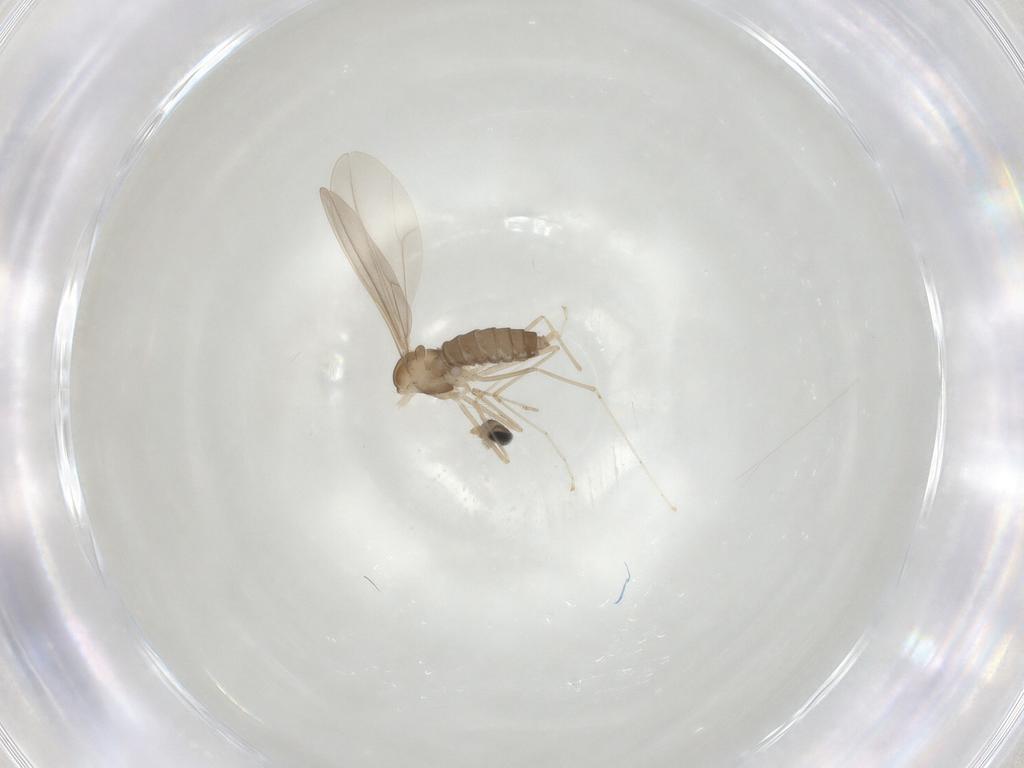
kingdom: Animalia
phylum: Arthropoda
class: Insecta
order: Diptera
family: Cecidomyiidae
